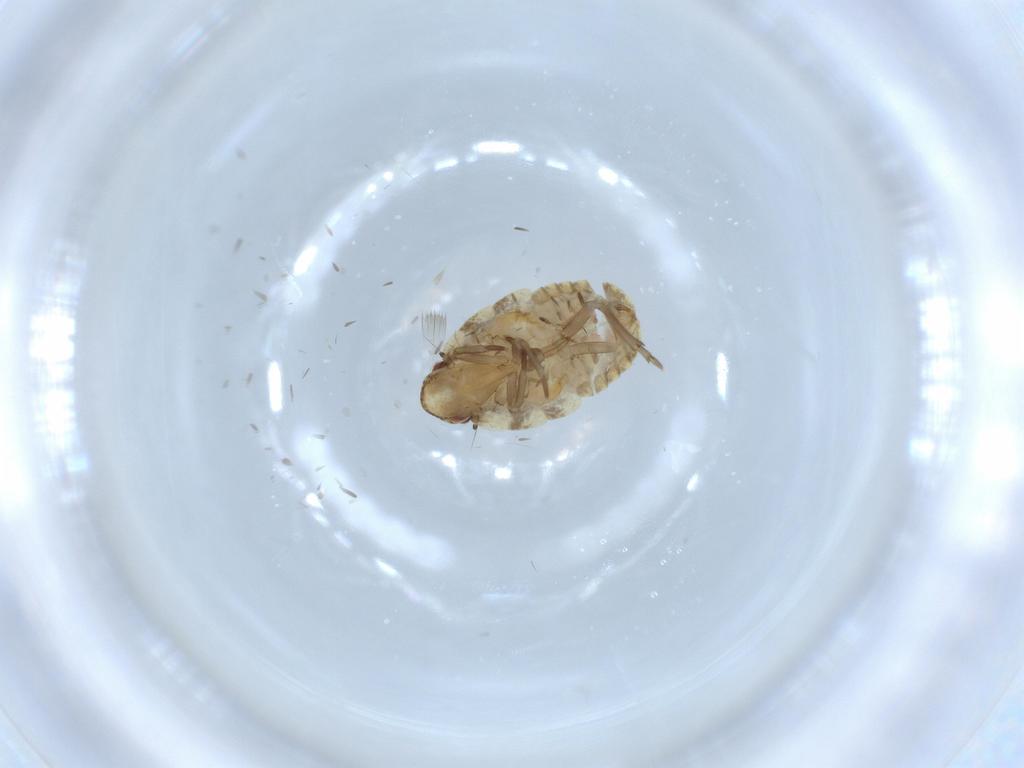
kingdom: Animalia
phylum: Arthropoda
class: Insecta
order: Hemiptera
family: Flatidae
